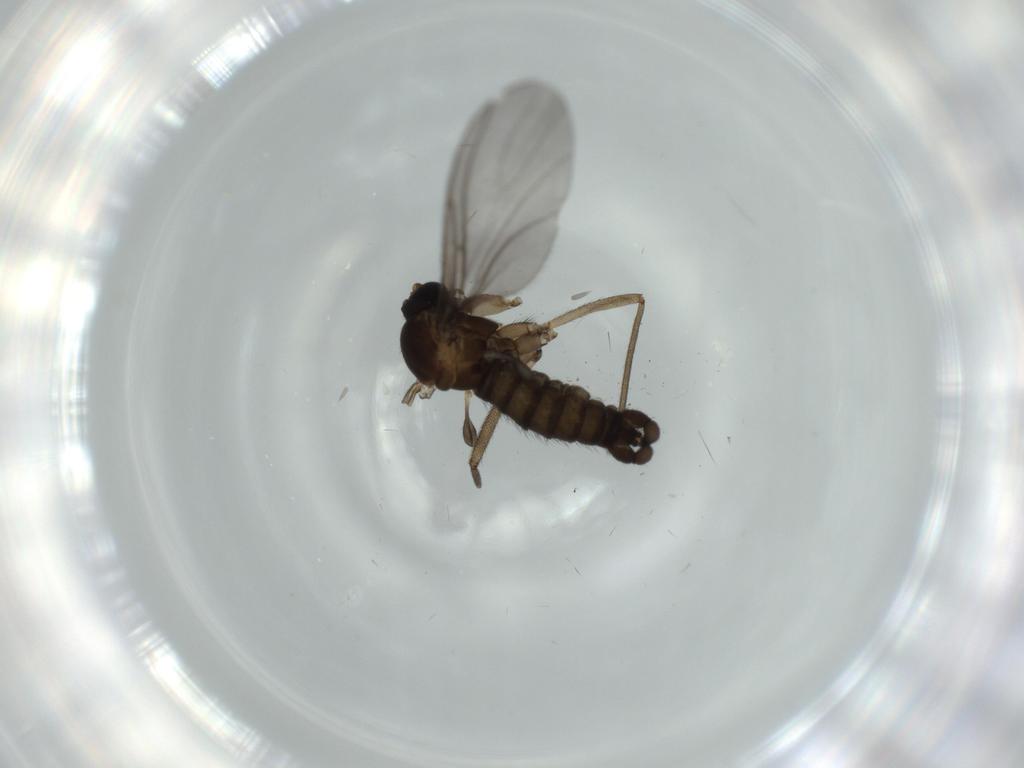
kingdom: Animalia
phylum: Arthropoda
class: Insecta
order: Diptera
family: Sciaridae
